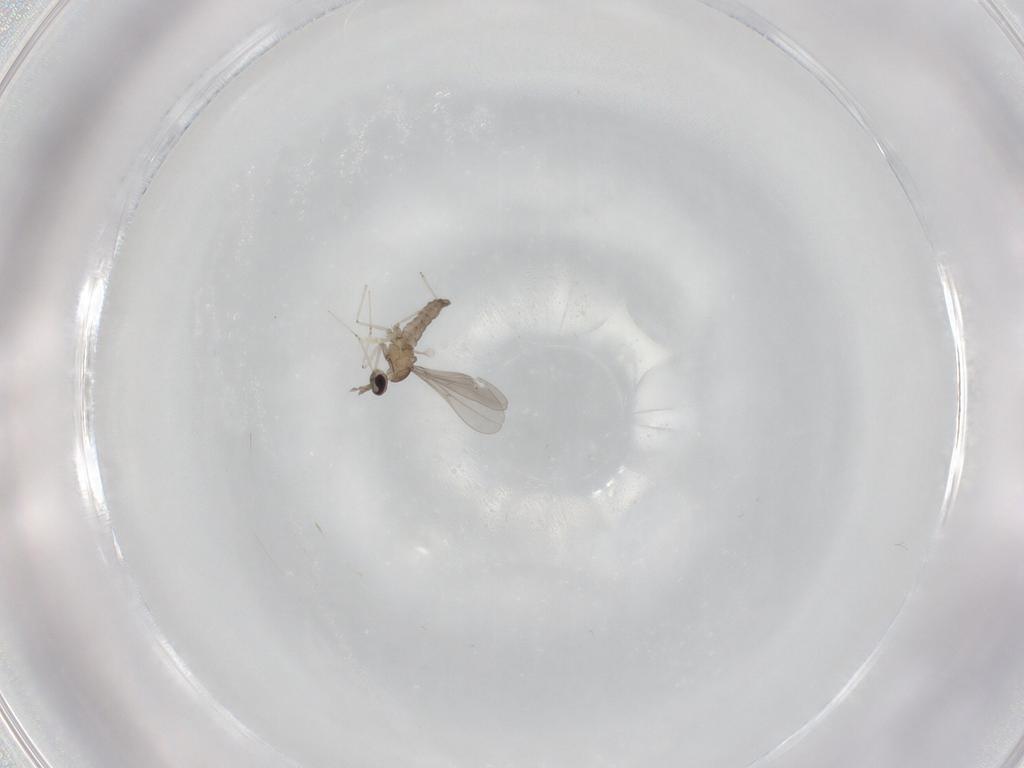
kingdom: Animalia
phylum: Arthropoda
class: Insecta
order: Diptera
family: Cecidomyiidae
